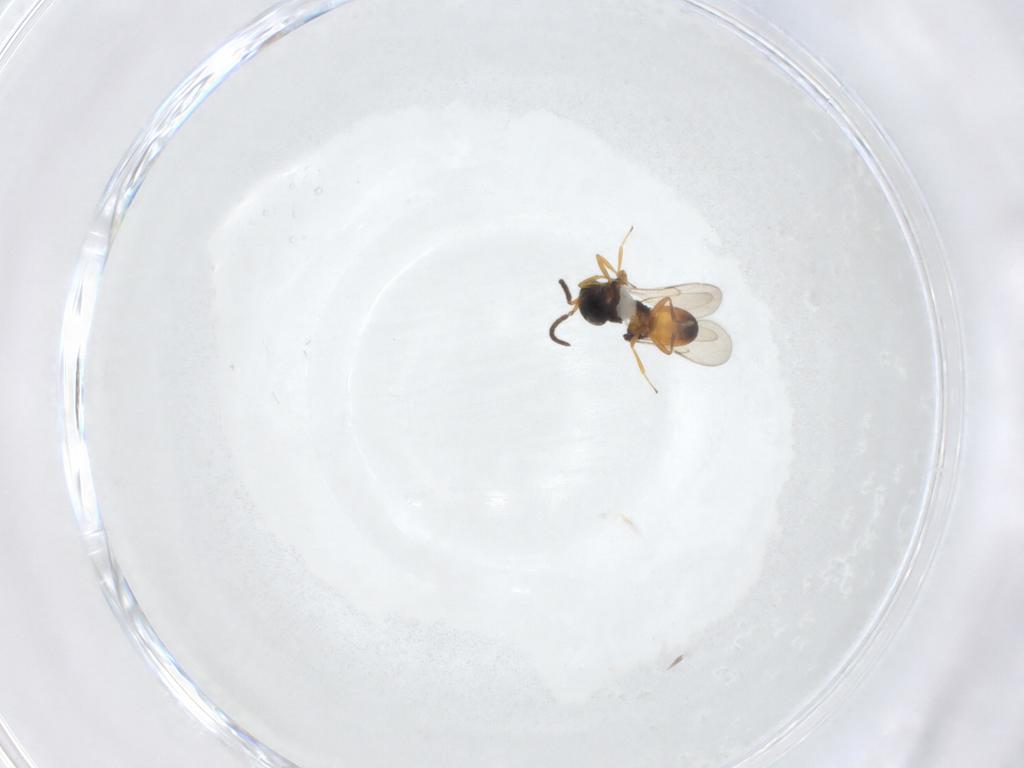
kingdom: Animalia
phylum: Arthropoda
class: Insecta
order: Hymenoptera
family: Scelionidae
